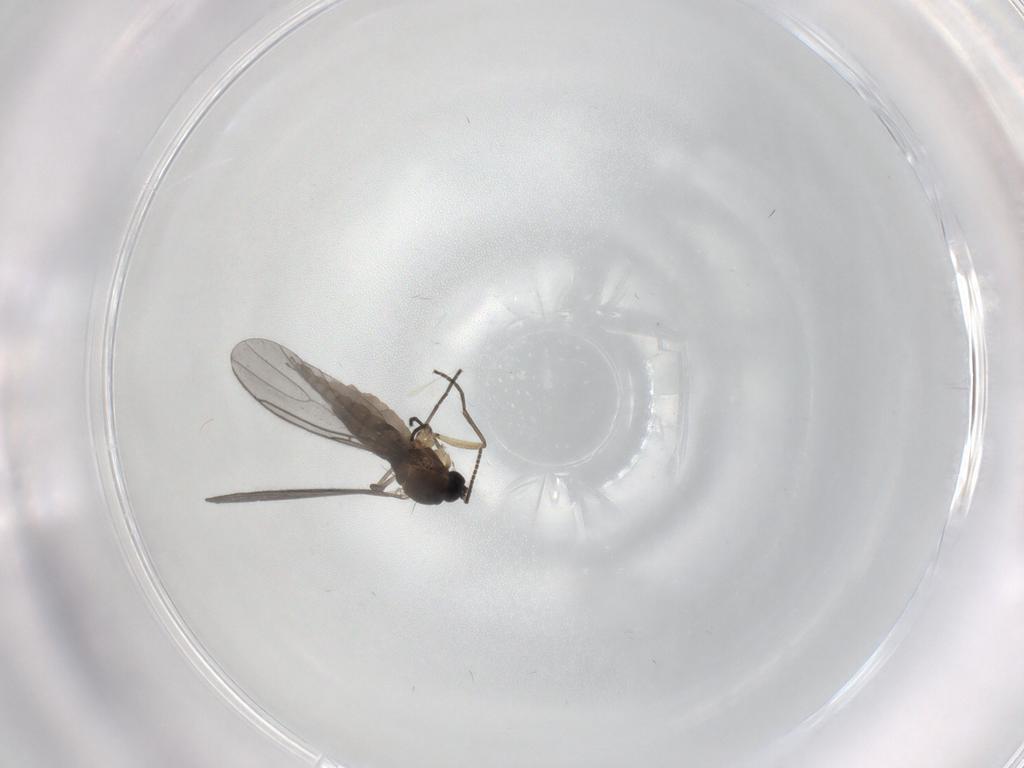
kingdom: Animalia
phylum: Arthropoda
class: Insecta
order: Diptera
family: Sciaridae
